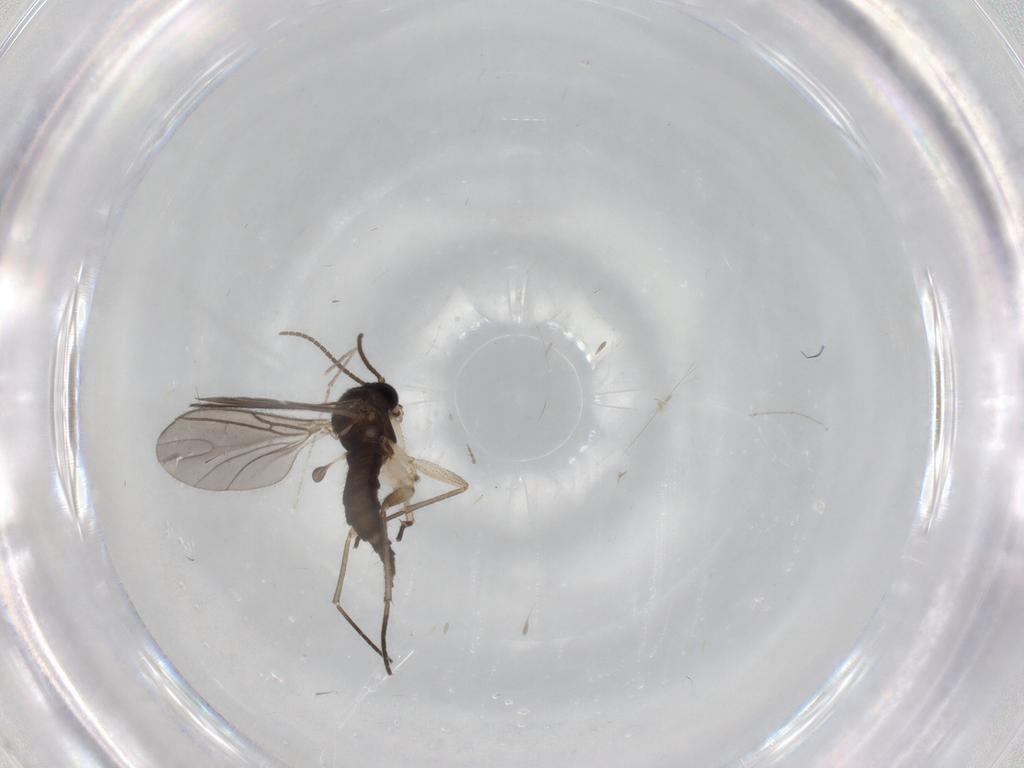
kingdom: Animalia
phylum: Arthropoda
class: Insecta
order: Diptera
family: Cecidomyiidae
